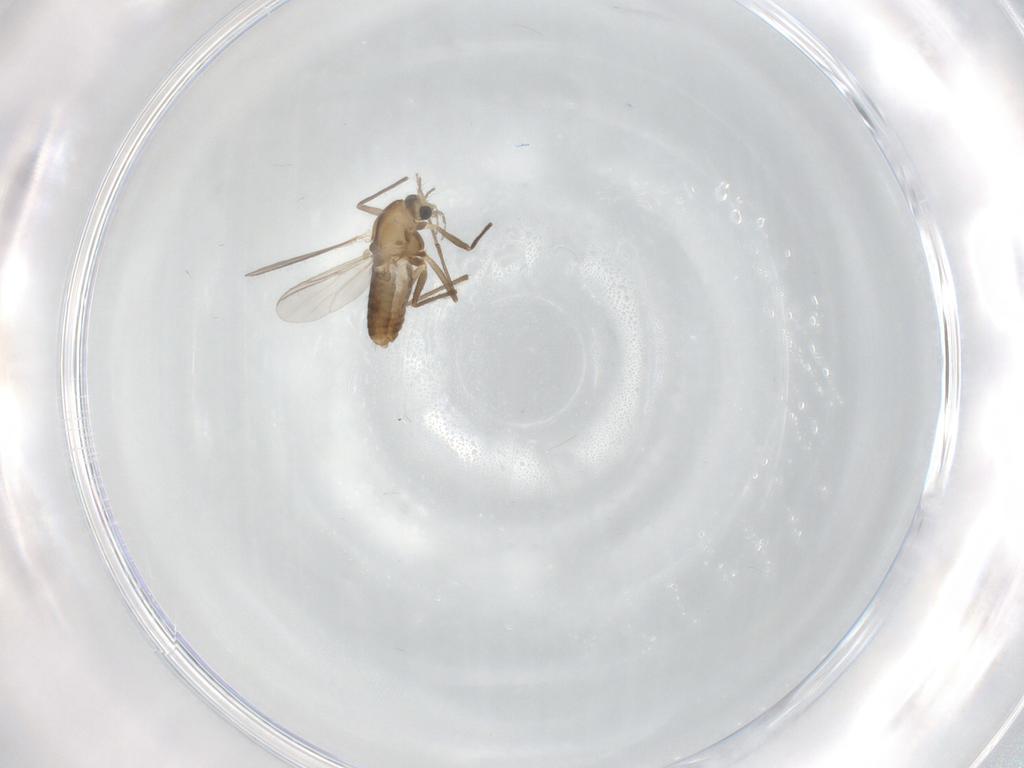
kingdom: Animalia
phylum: Arthropoda
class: Insecta
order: Diptera
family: Chironomidae
